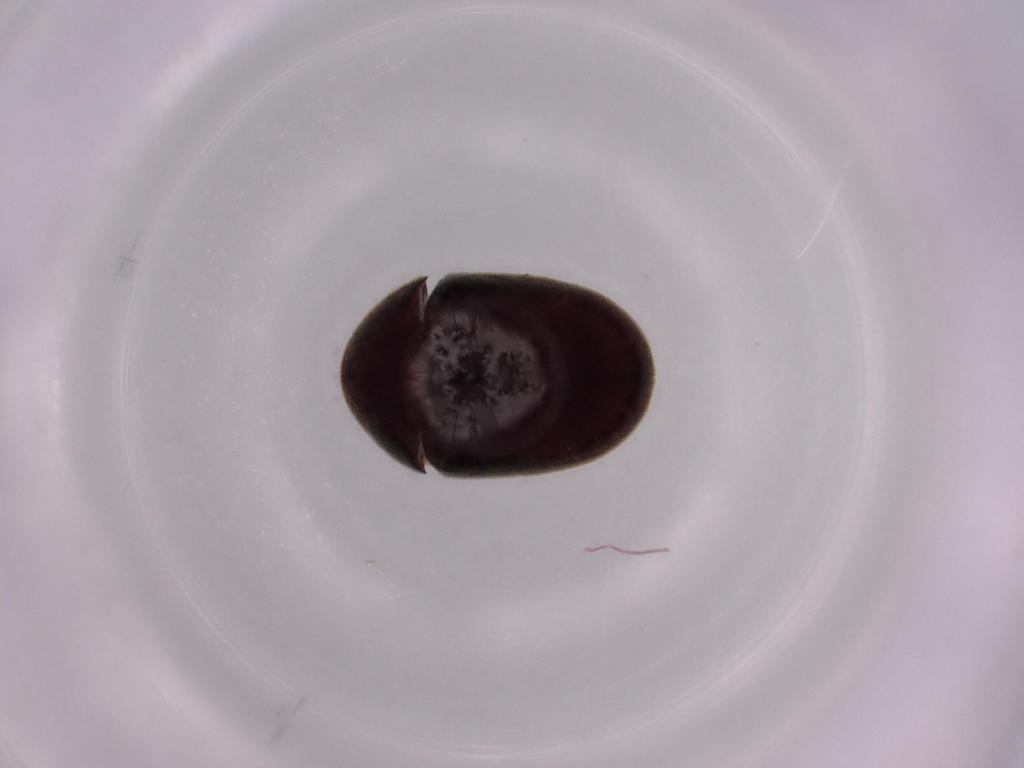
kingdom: Animalia
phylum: Arthropoda
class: Insecta
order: Coleoptera
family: Ptinidae
